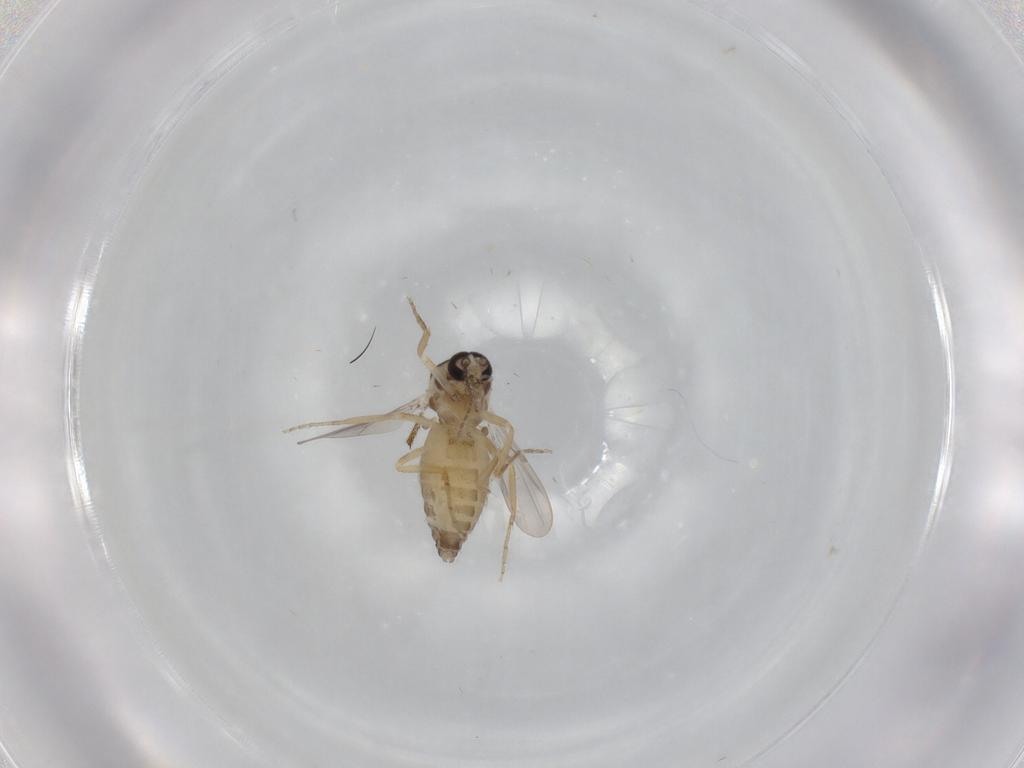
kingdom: Animalia
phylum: Arthropoda
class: Insecta
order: Diptera
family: Ceratopogonidae
